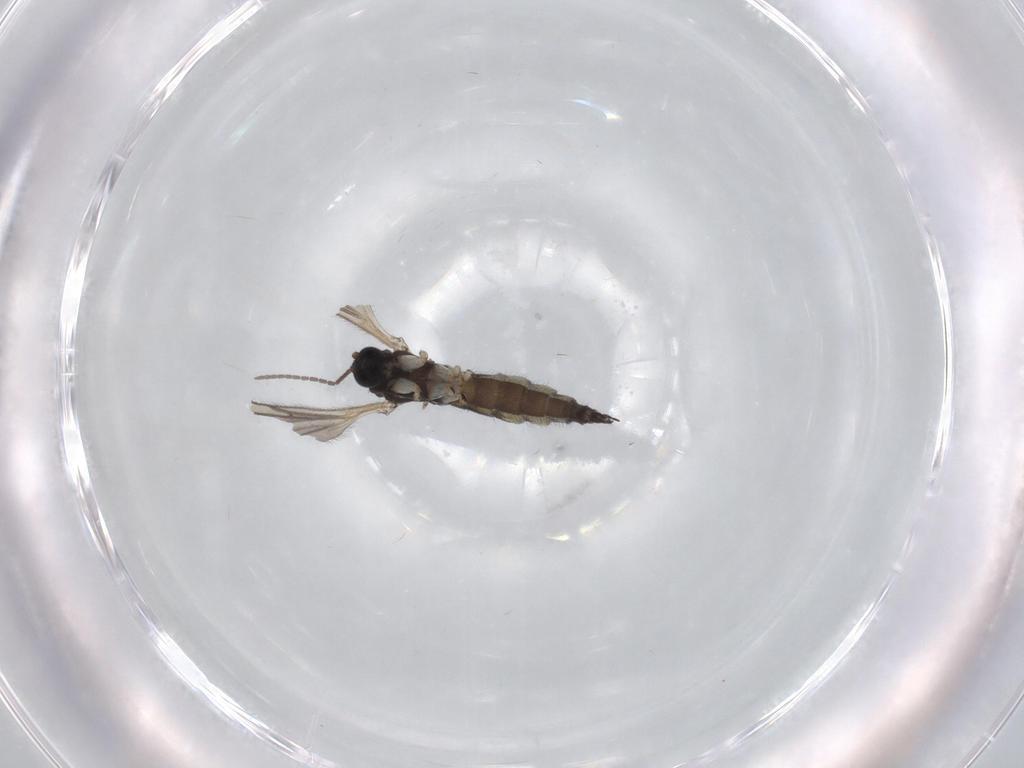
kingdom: Animalia
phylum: Arthropoda
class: Insecta
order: Diptera
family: Sciaridae
